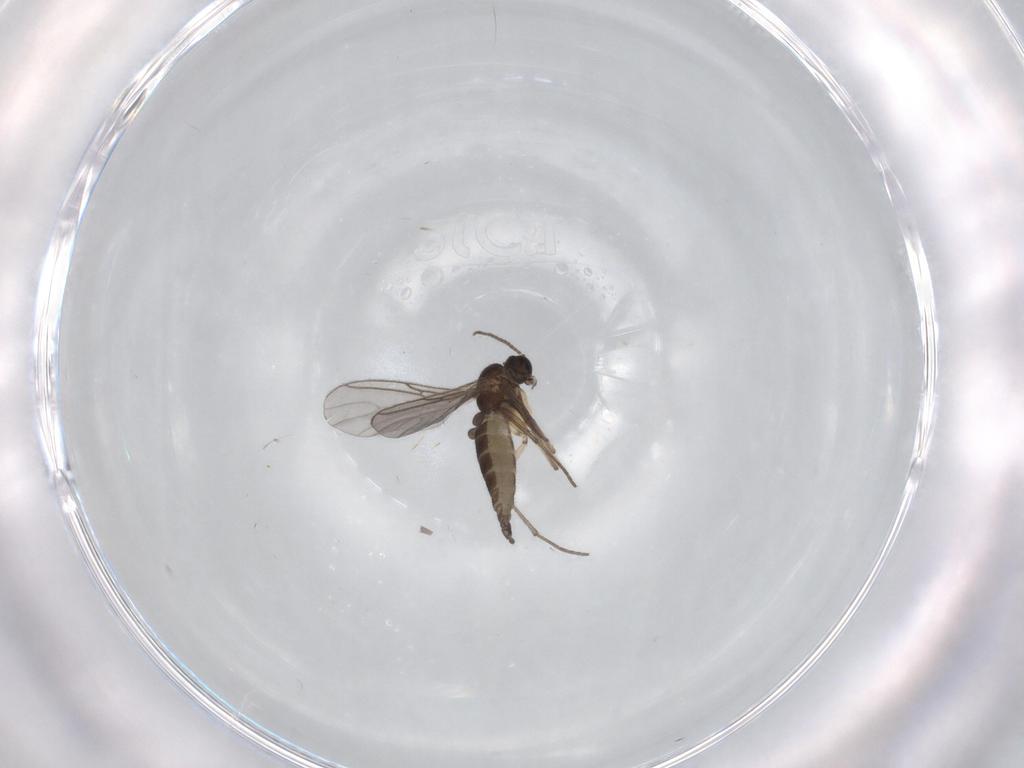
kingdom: Animalia
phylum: Arthropoda
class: Insecta
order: Diptera
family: Sciaridae
